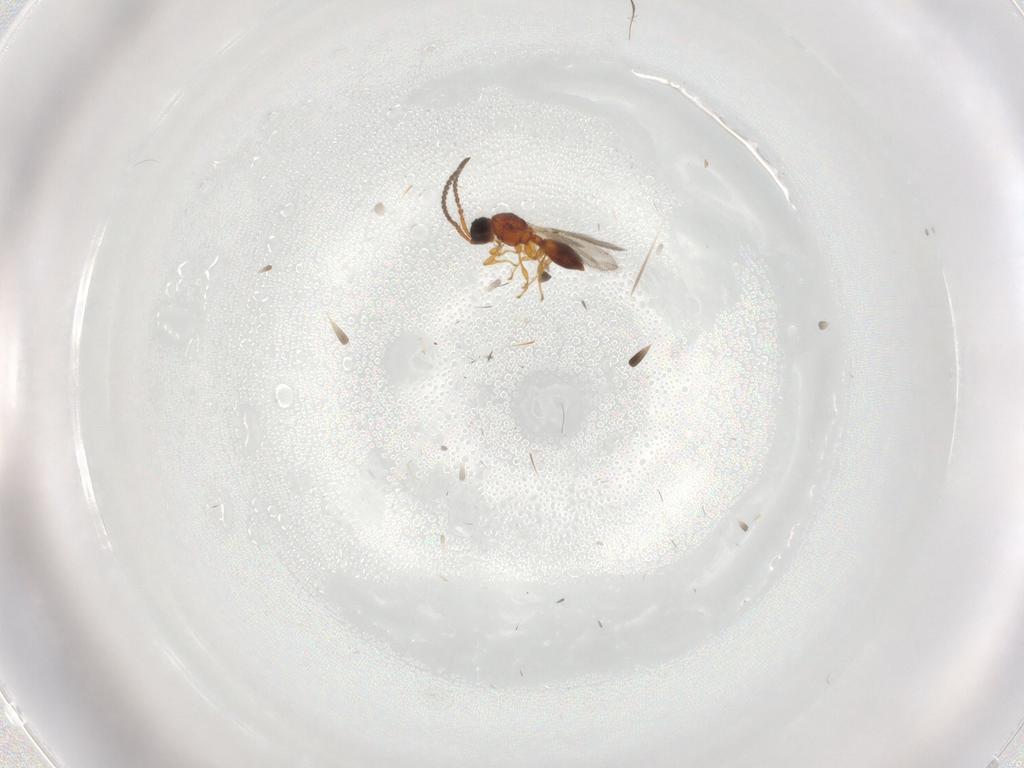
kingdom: Animalia
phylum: Arthropoda
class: Insecta
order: Hymenoptera
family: Diapriidae
